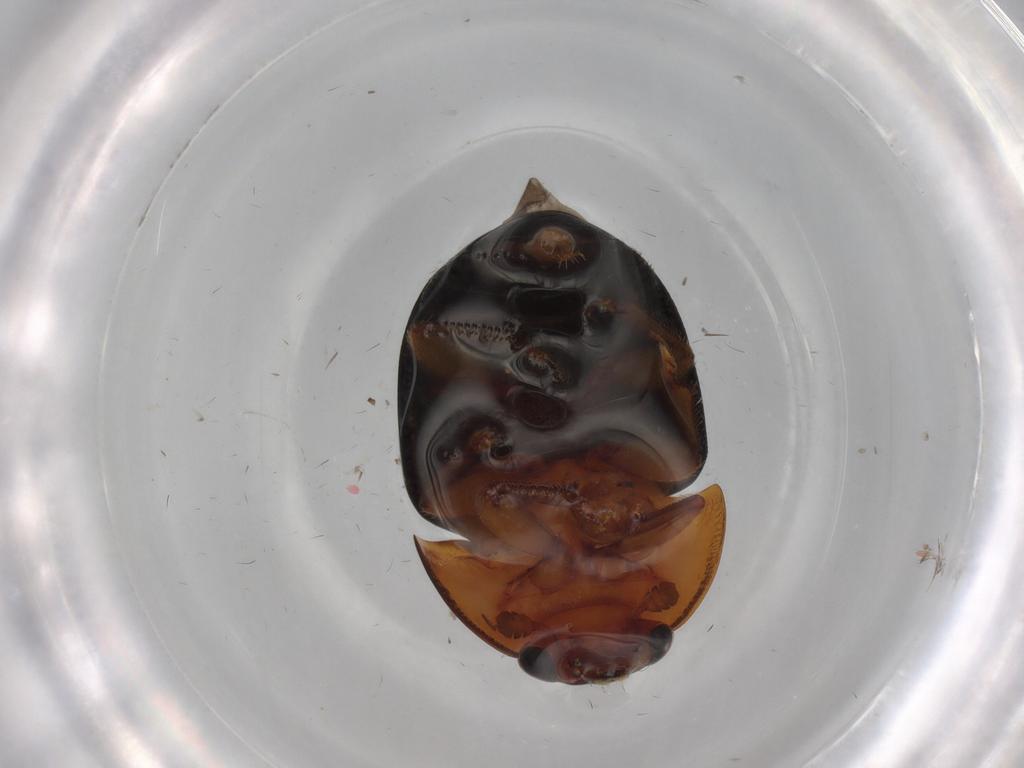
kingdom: Animalia
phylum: Arthropoda
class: Insecta
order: Coleoptera
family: Nitidulidae
